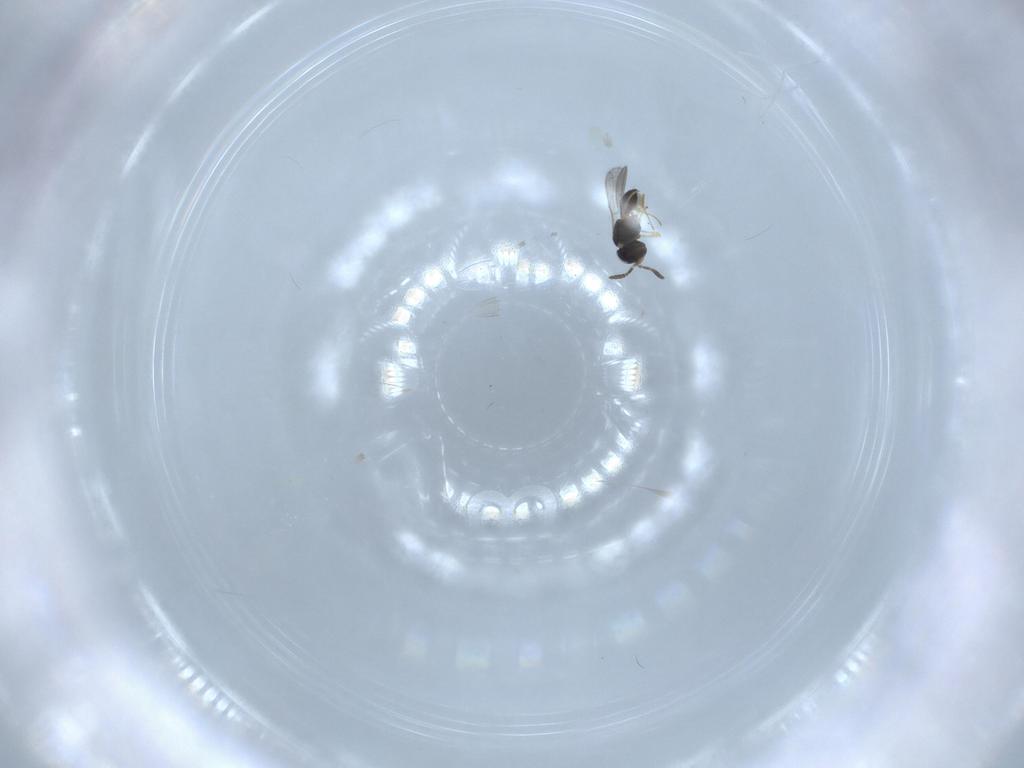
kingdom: Animalia
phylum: Arthropoda
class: Insecta
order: Hymenoptera
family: Scelionidae
